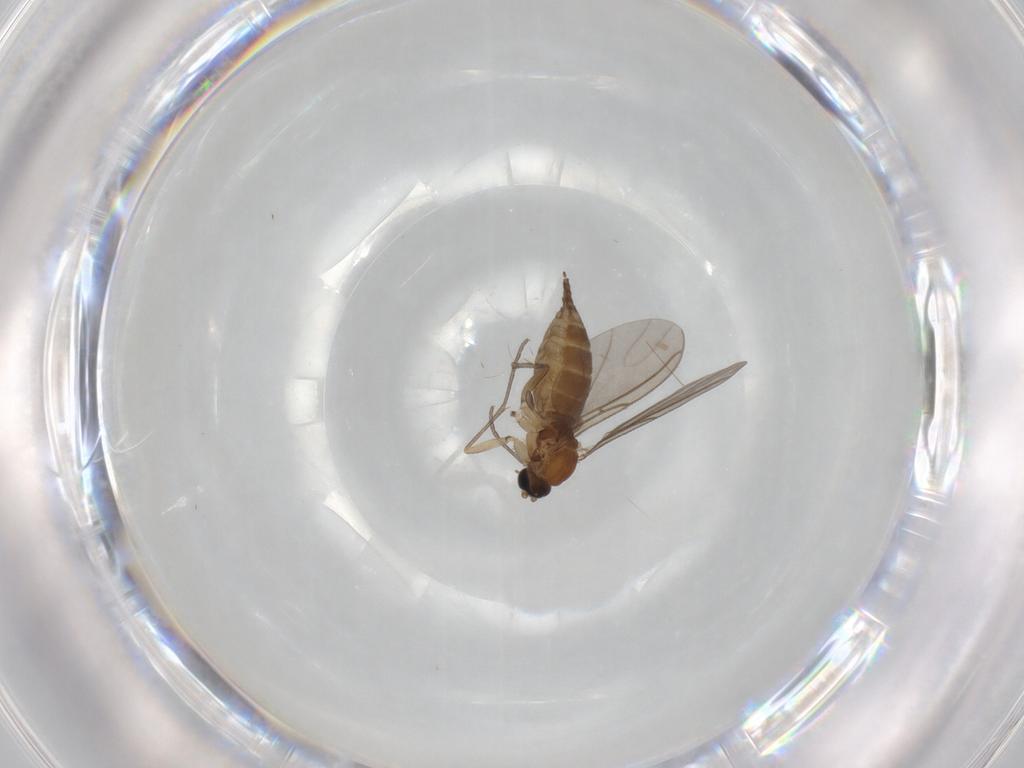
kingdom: Animalia
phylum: Arthropoda
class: Insecta
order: Diptera
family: Sciaridae
